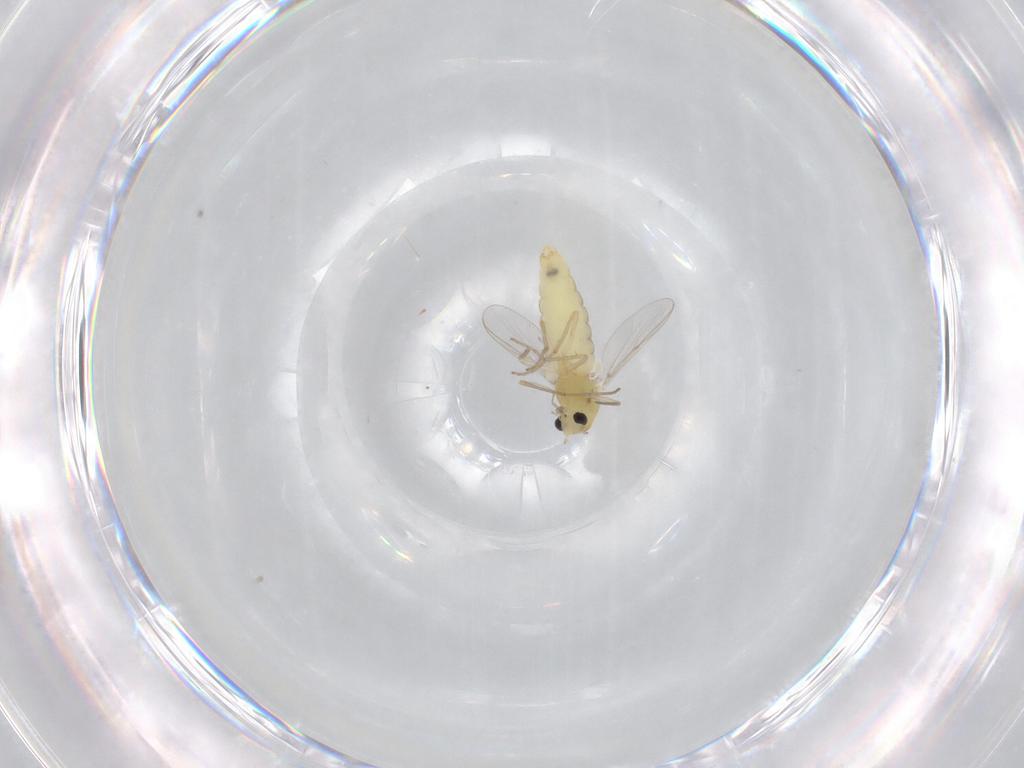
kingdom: Animalia
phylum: Arthropoda
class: Insecta
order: Diptera
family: Chironomidae
